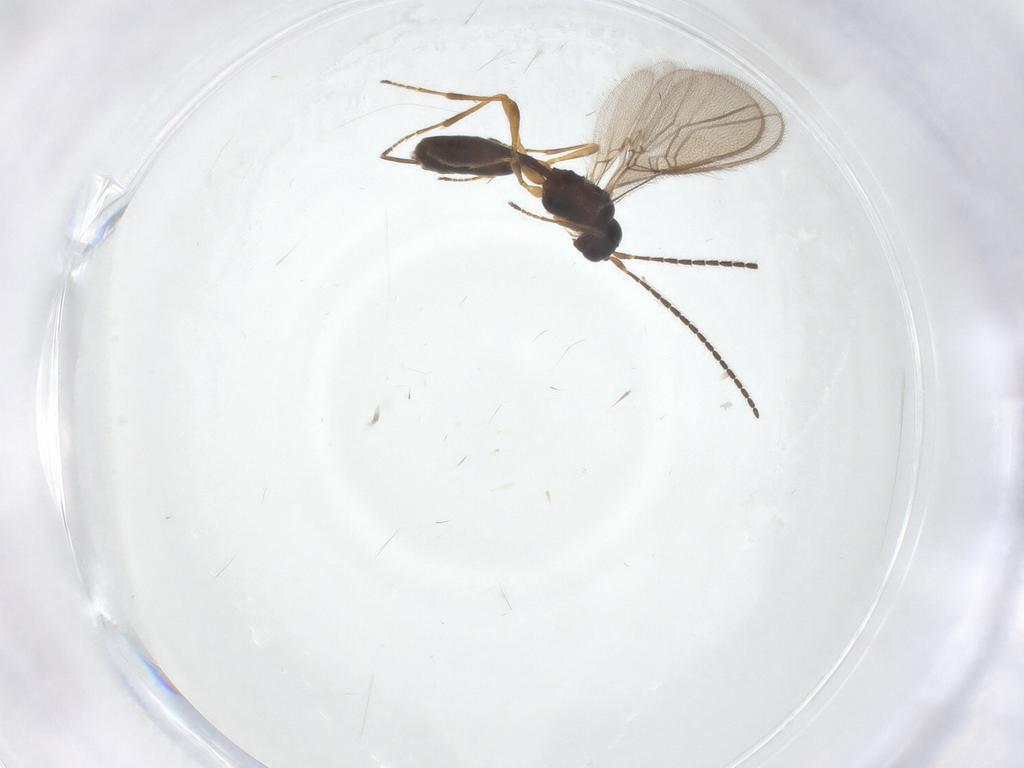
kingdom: Animalia
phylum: Arthropoda
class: Insecta
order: Hymenoptera
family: Braconidae
